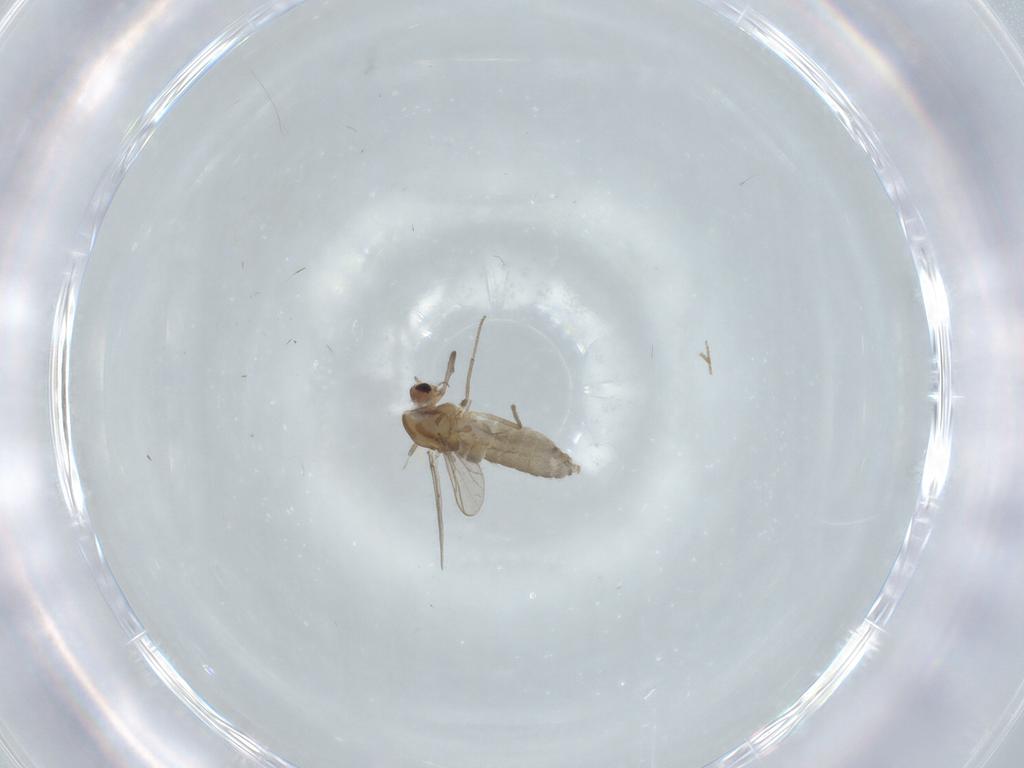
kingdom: Animalia
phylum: Arthropoda
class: Insecta
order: Diptera
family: Chironomidae
